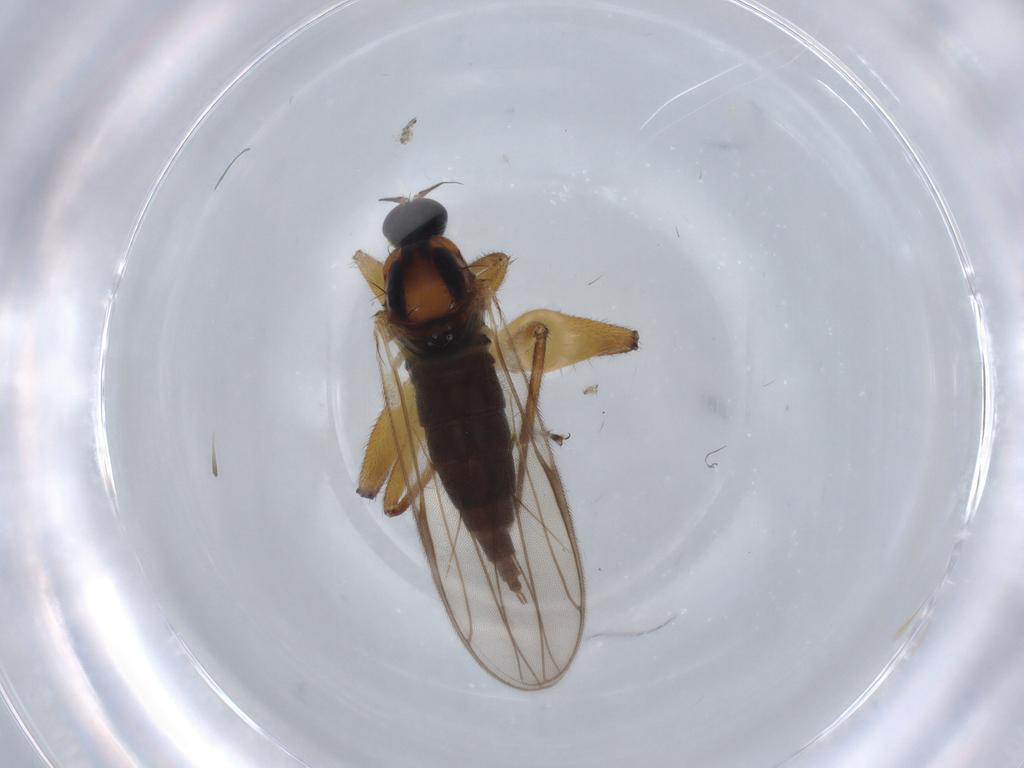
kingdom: Animalia
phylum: Arthropoda
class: Insecta
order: Diptera
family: Hybotidae
